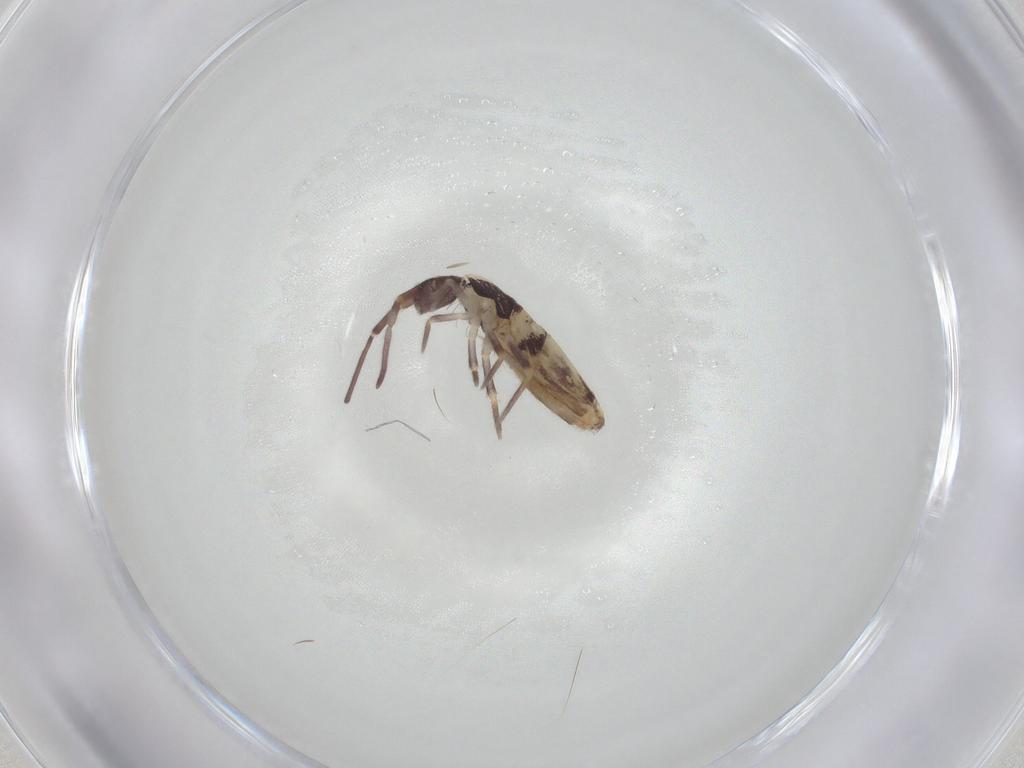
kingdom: Animalia
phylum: Arthropoda
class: Collembola
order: Entomobryomorpha
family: Entomobryidae
